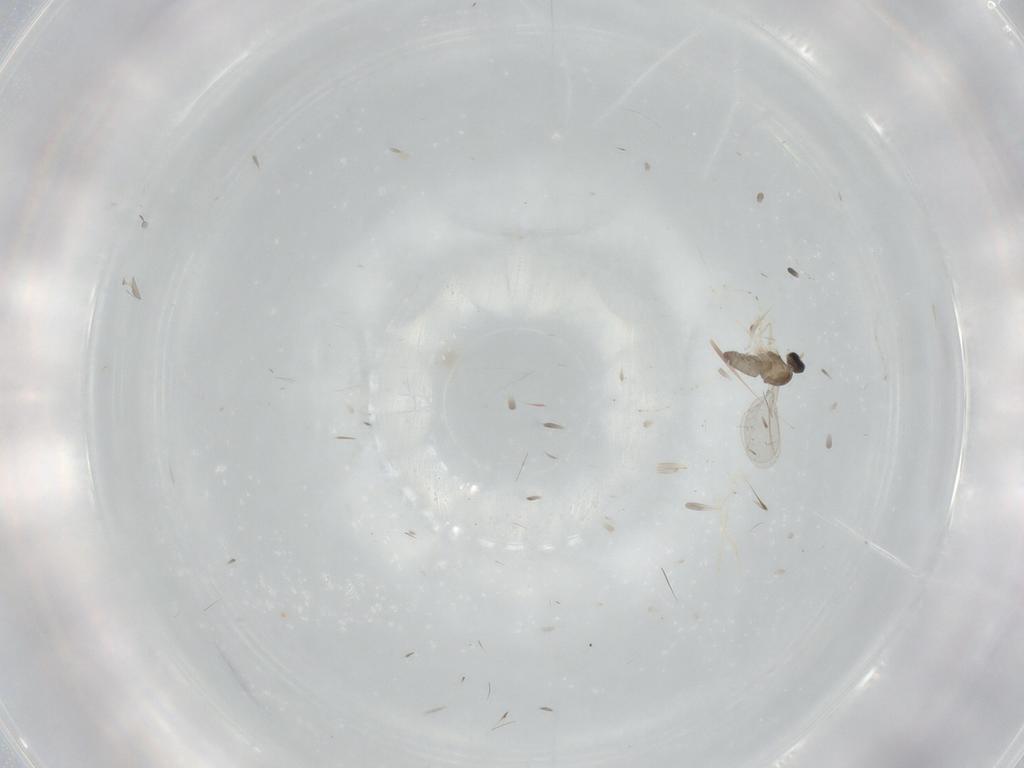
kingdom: Animalia
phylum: Arthropoda
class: Insecta
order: Diptera
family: Cecidomyiidae
